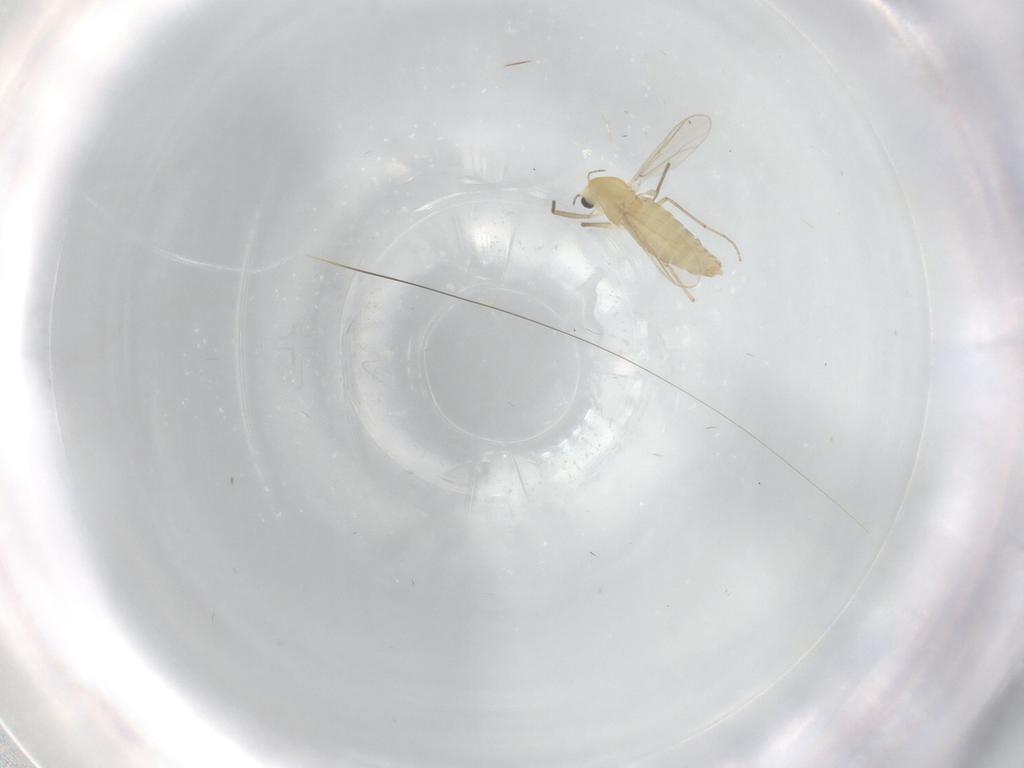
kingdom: Animalia
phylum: Arthropoda
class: Insecta
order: Diptera
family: Chironomidae
